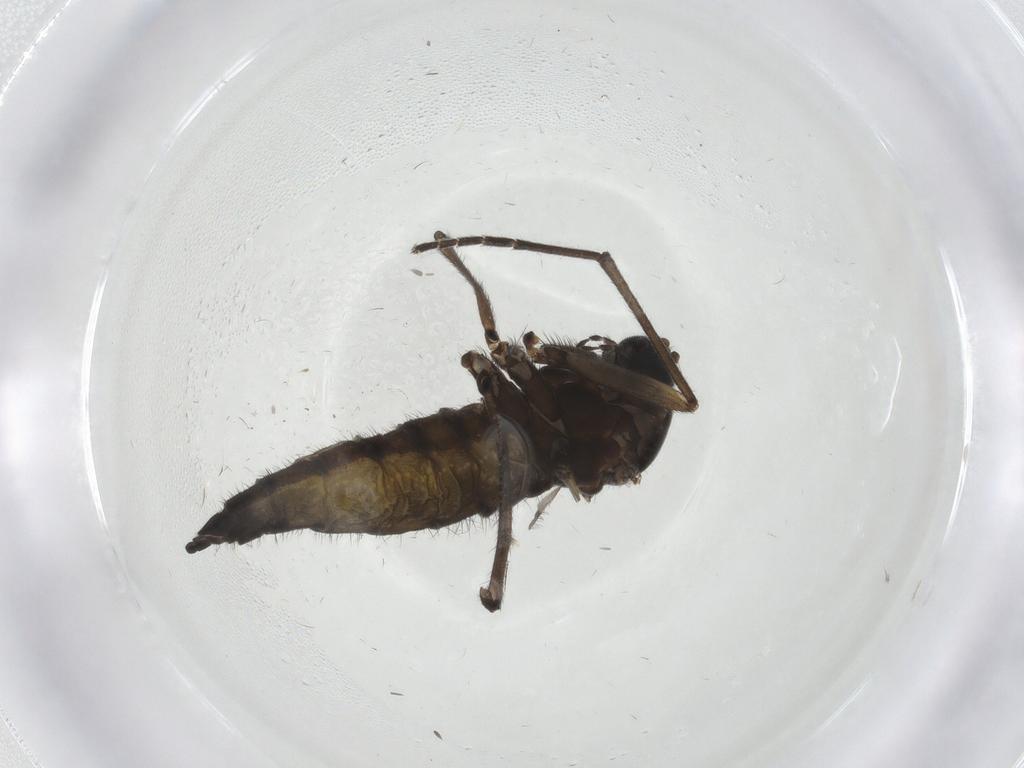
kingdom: Animalia
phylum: Arthropoda
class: Insecta
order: Diptera
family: Sciaridae
